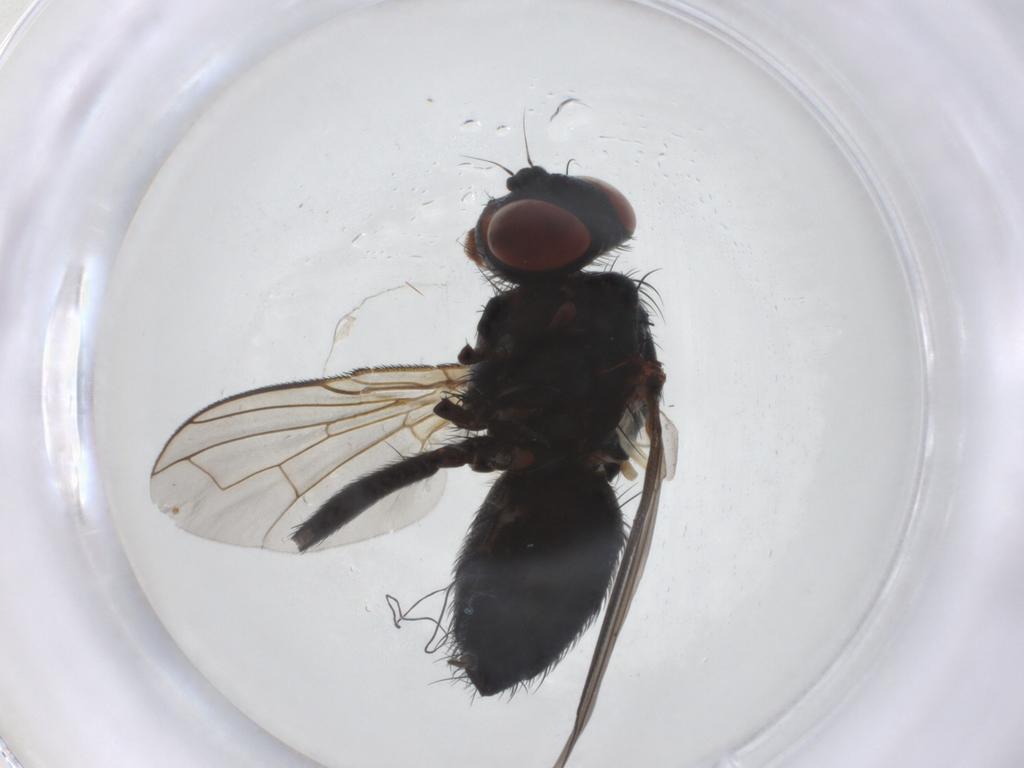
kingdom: Animalia
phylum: Arthropoda
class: Insecta
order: Diptera
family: Calliphoridae
